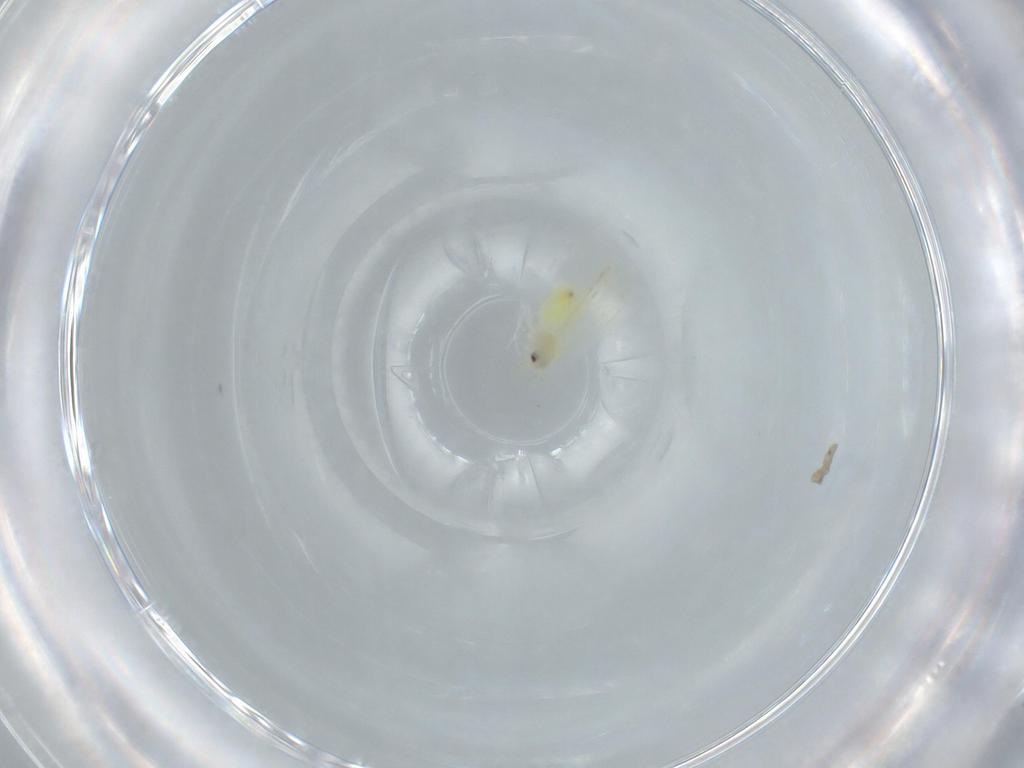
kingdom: Animalia
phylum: Arthropoda
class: Insecta
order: Hemiptera
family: Aleyrodidae
